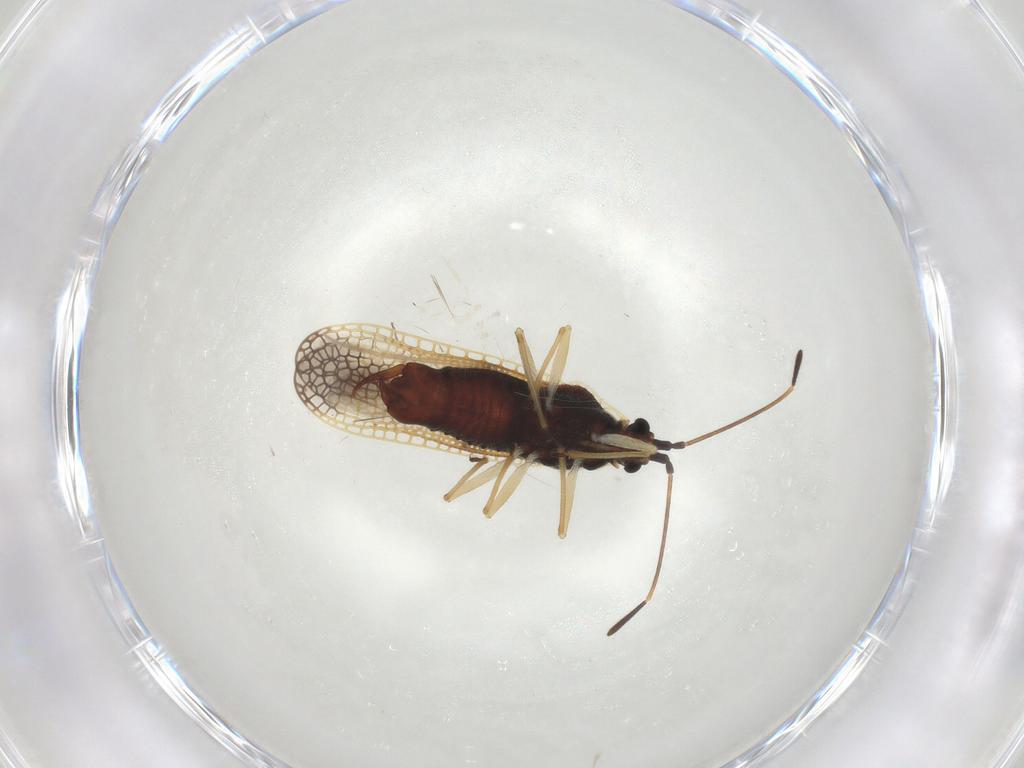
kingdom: Animalia
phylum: Arthropoda
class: Insecta
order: Hemiptera
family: Tingidae
